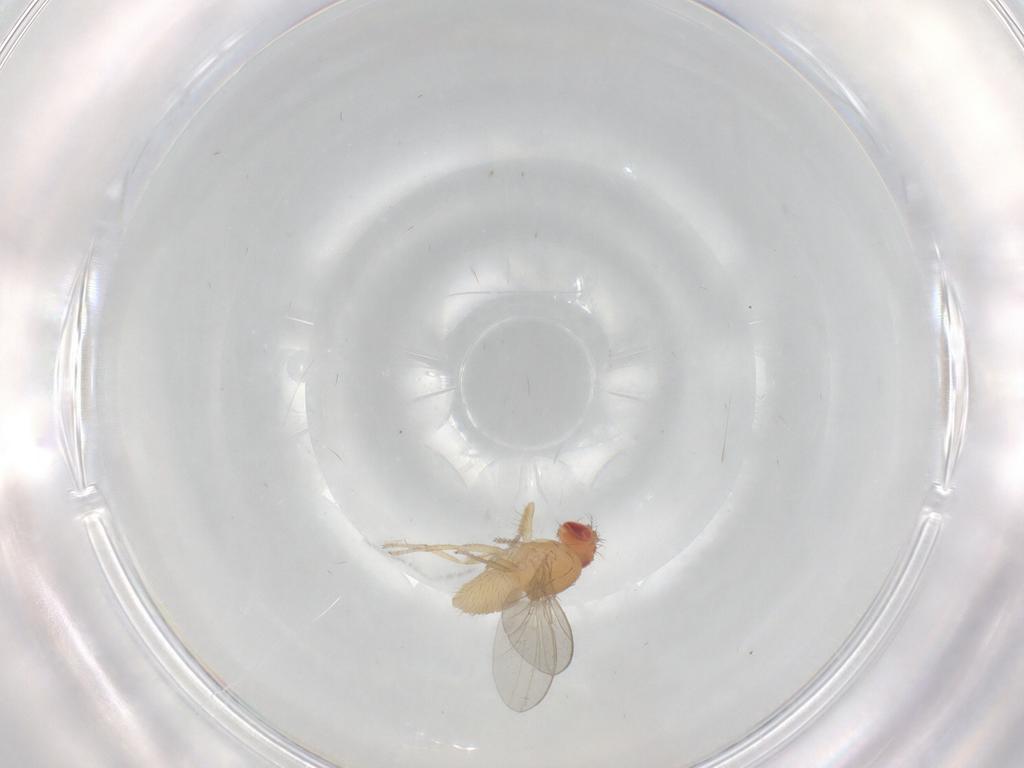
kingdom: Animalia
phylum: Arthropoda
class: Insecta
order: Diptera
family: Drosophilidae
